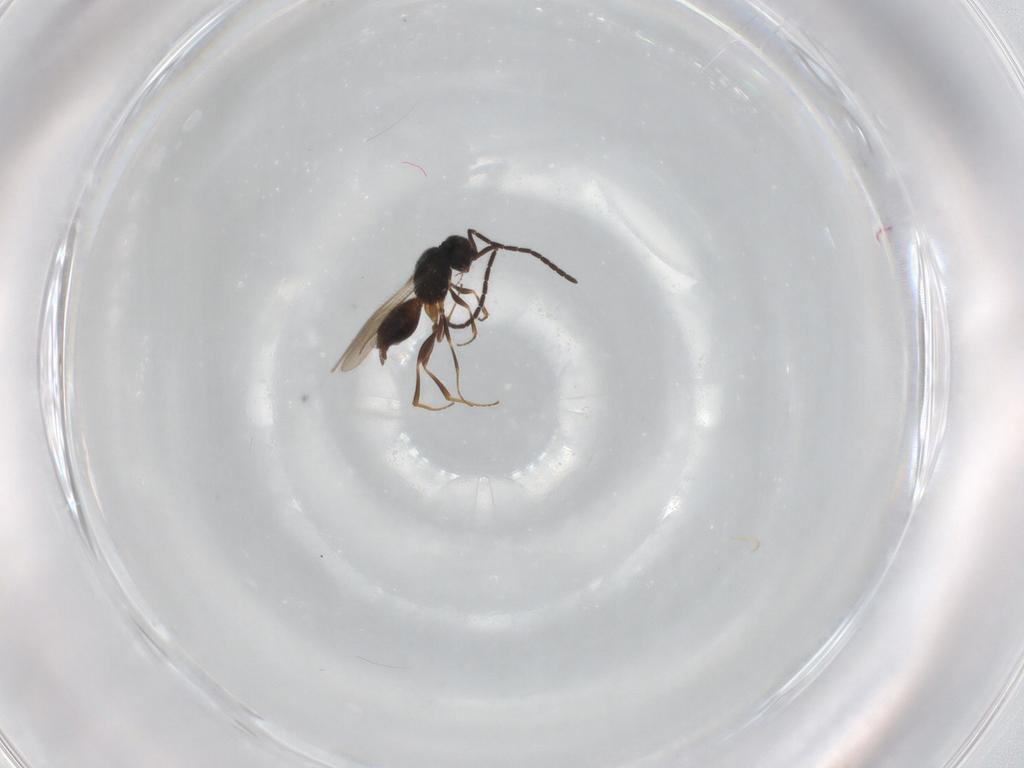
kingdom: Animalia
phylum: Arthropoda
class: Insecta
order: Hymenoptera
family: Mymaridae
